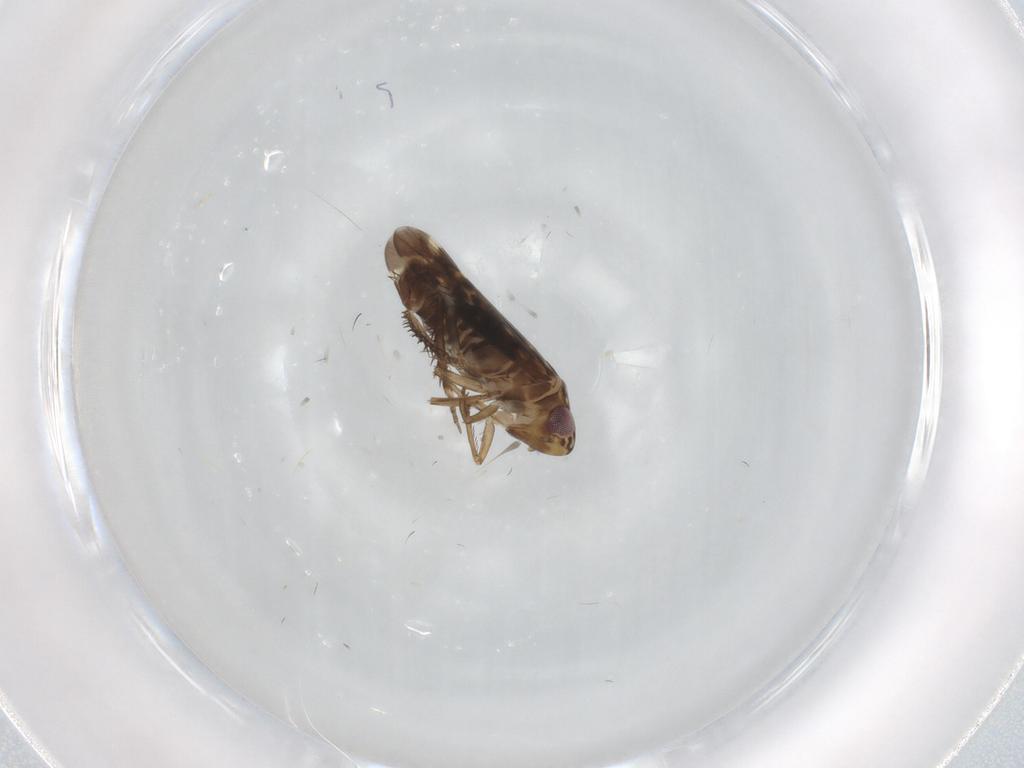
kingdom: Animalia
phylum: Arthropoda
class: Insecta
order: Hemiptera
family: Cicadellidae
